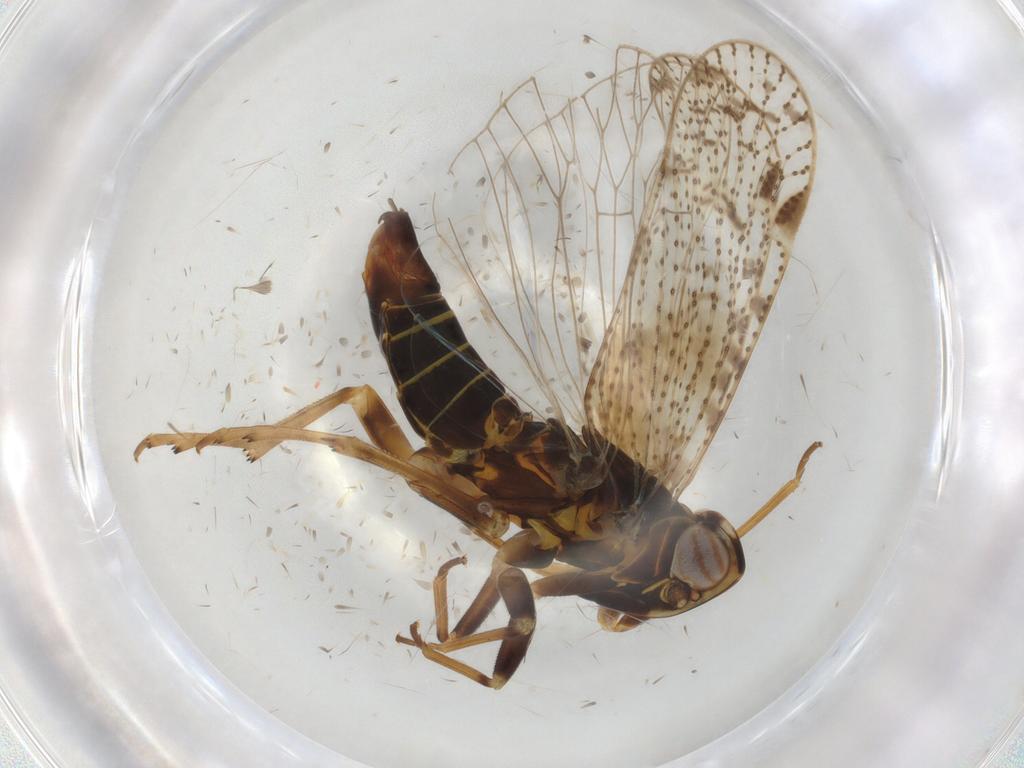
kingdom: Animalia
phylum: Arthropoda
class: Insecta
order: Hemiptera
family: Cixiidae
